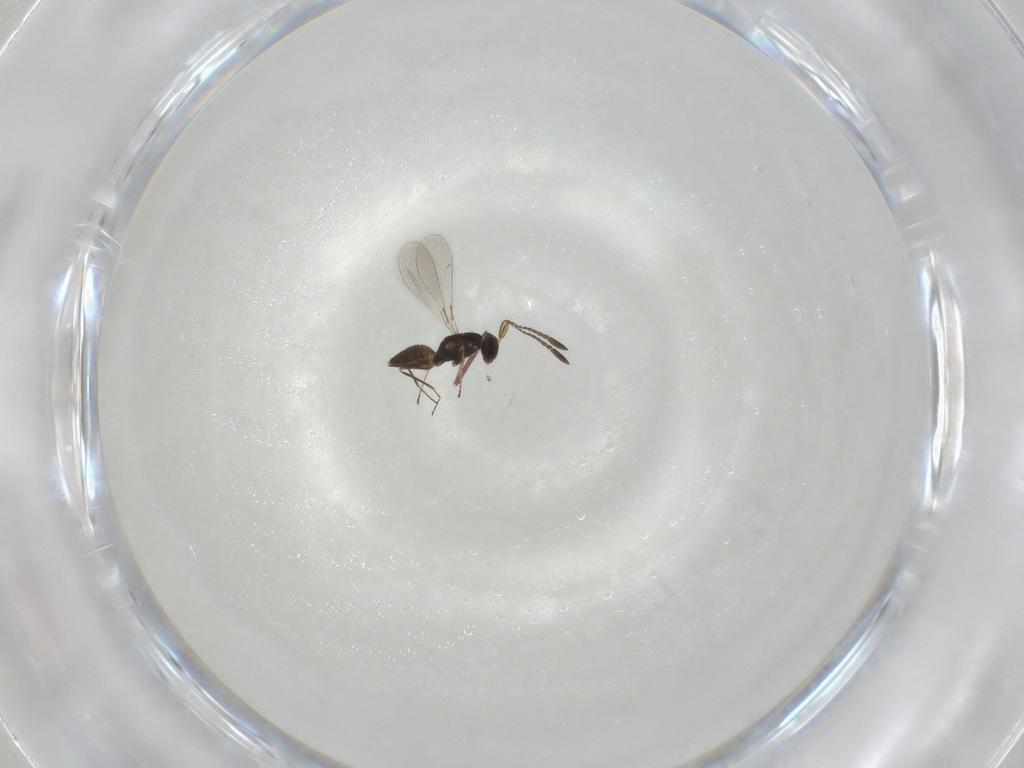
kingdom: Animalia
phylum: Arthropoda
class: Insecta
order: Hymenoptera
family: Mymaridae
